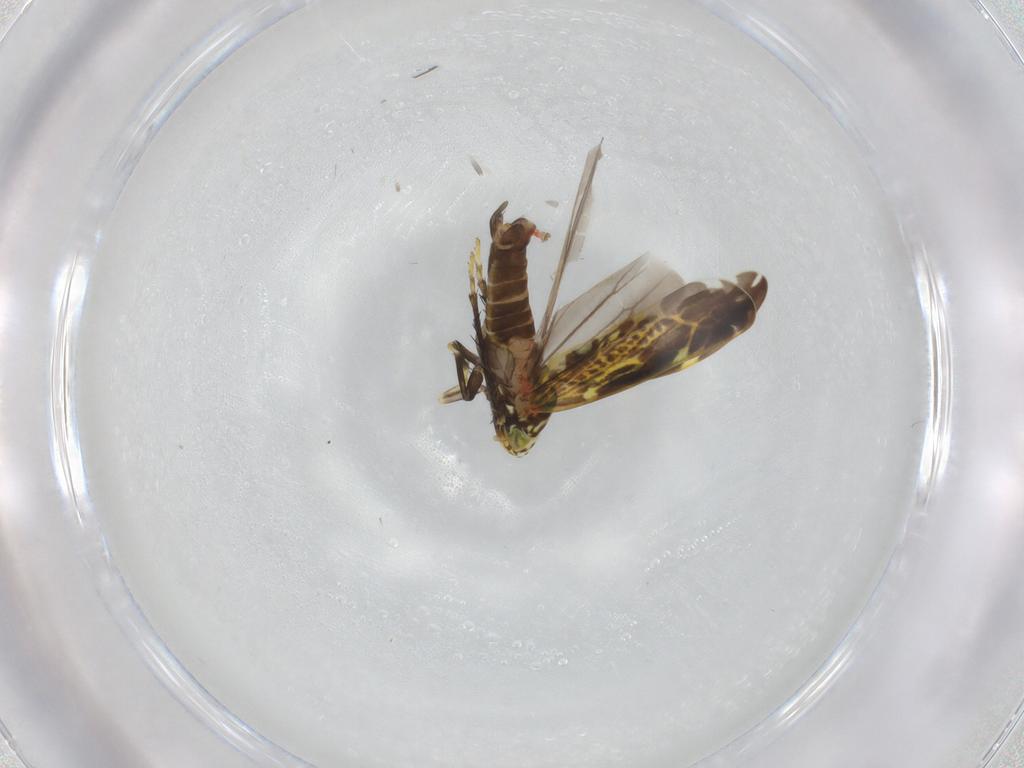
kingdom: Animalia
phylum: Arthropoda
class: Insecta
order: Hemiptera
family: Cicadellidae
